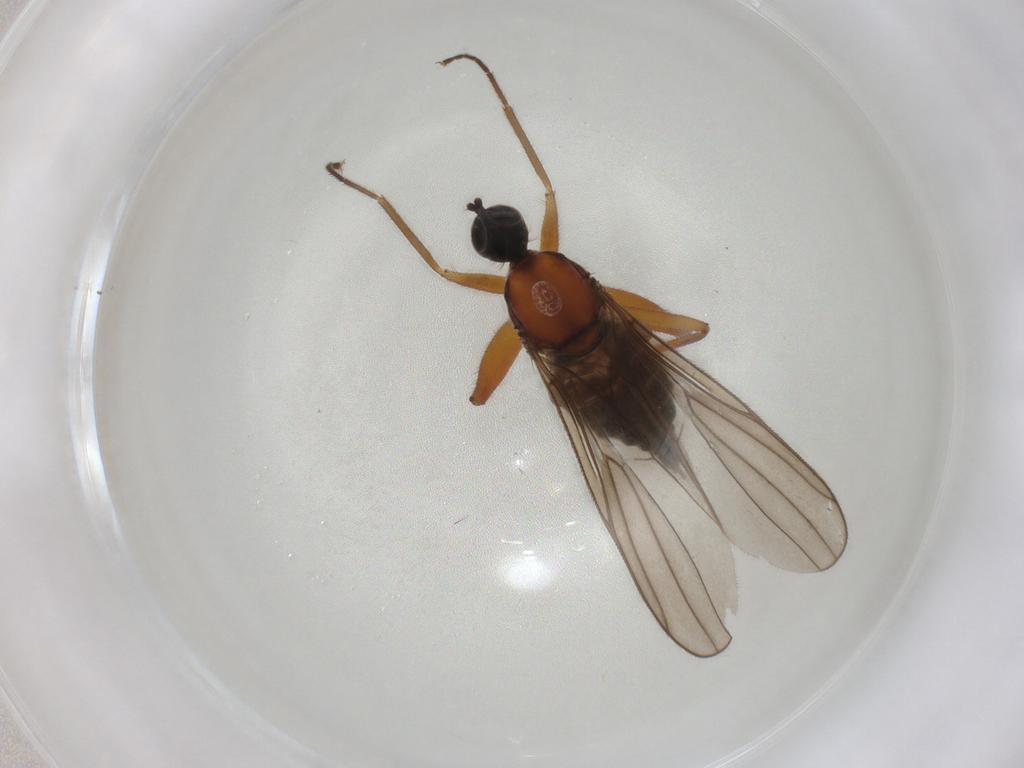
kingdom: Animalia
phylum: Arthropoda
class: Insecta
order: Diptera
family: Hybotidae
